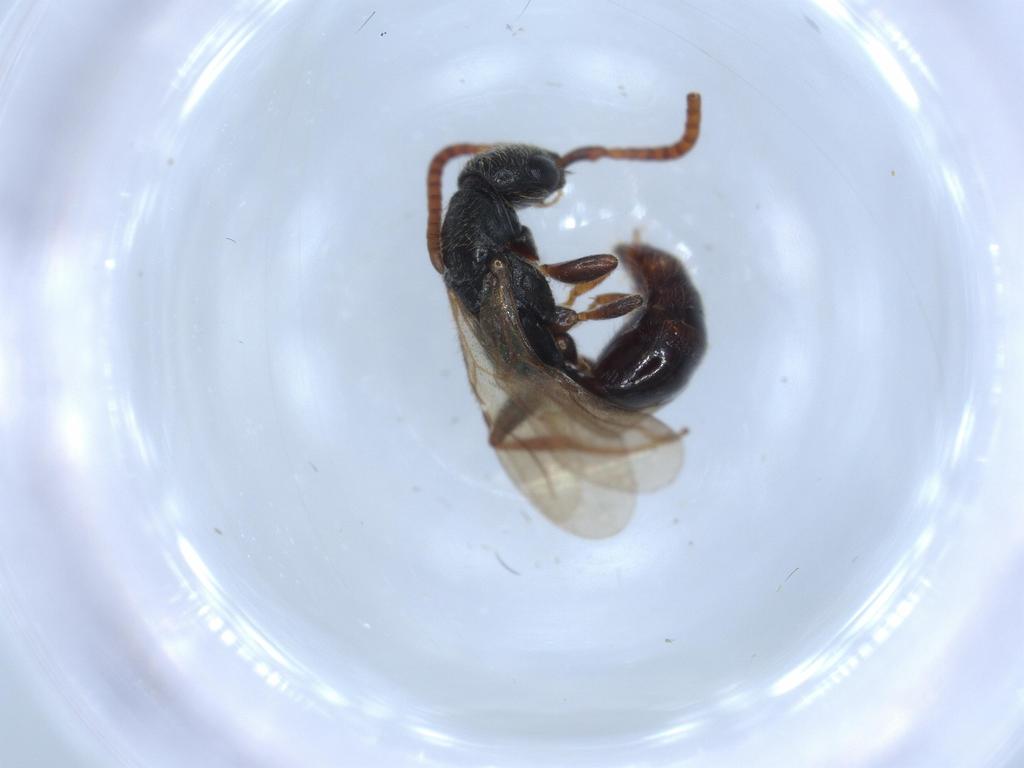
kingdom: Animalia
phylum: Arthropoda
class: Insecta
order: Hymenoptera
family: Bethylidae
